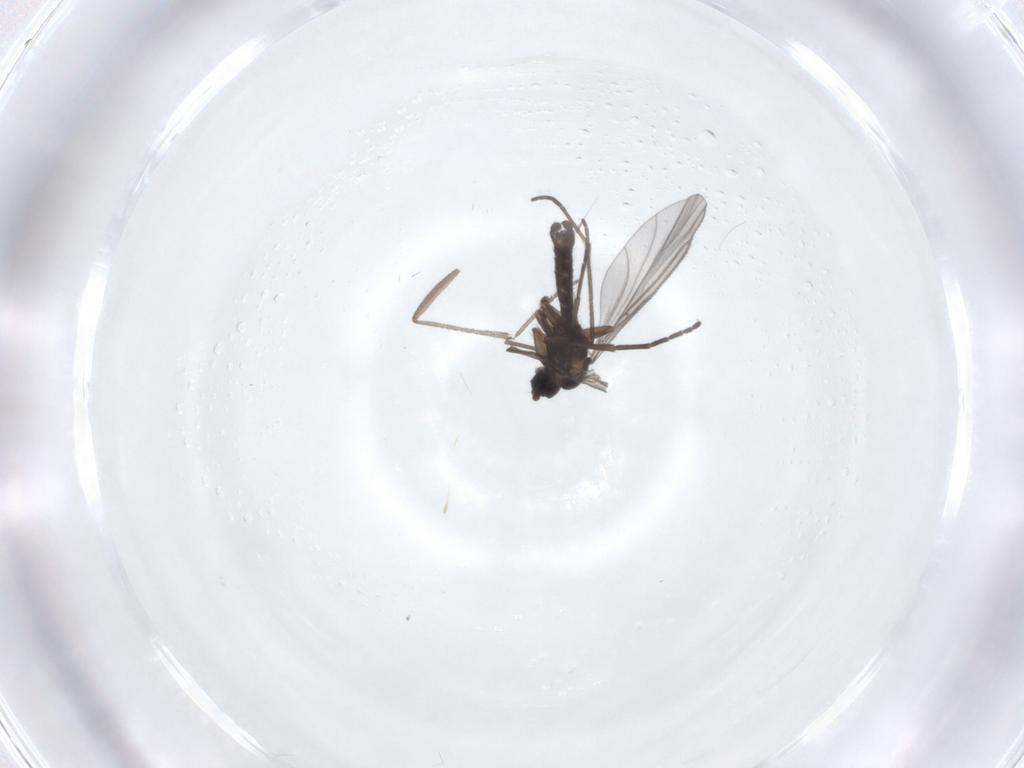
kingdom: Animalia
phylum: Arthropoda
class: Insecta
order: Diptera
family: Sciaridae
